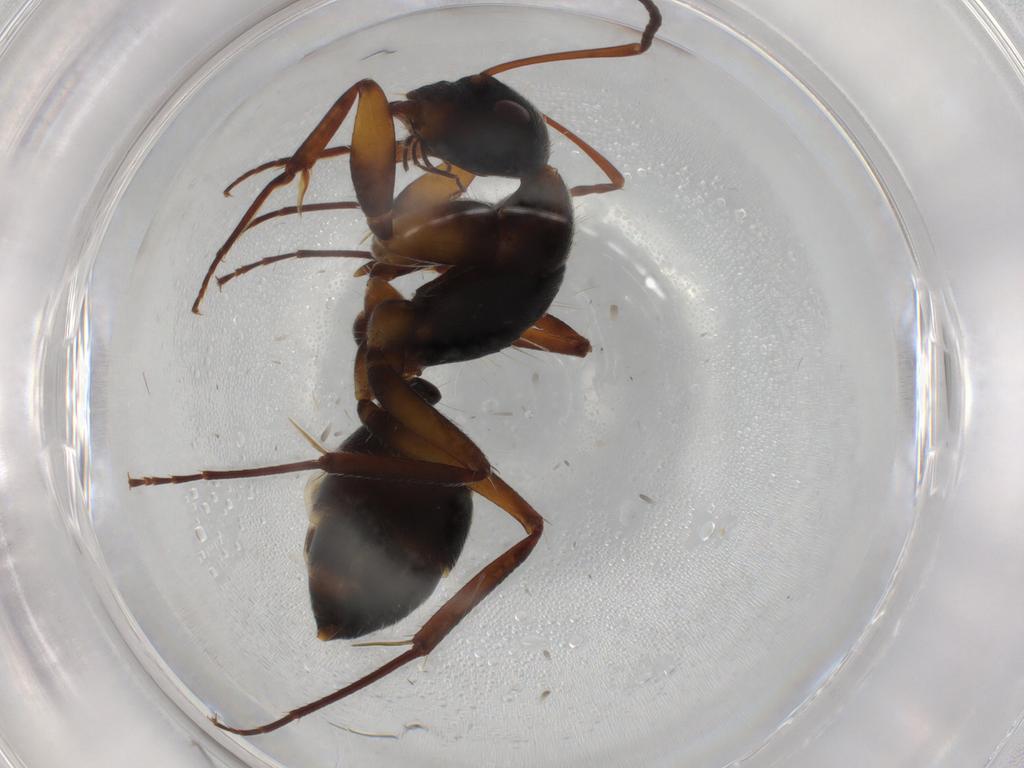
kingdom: Animalia
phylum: Arthropoda
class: Insecta
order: Hymenoptera
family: Formicidae
